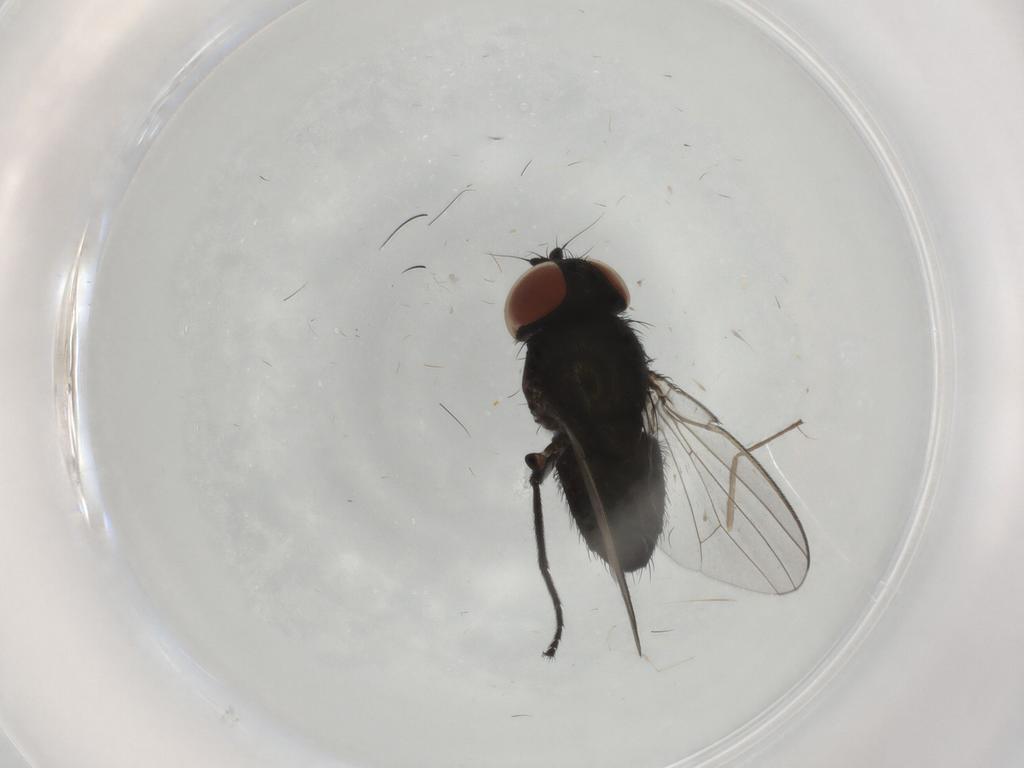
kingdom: Animalia
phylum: Arthropoda
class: Insecta
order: Diptera
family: Milichiidae
